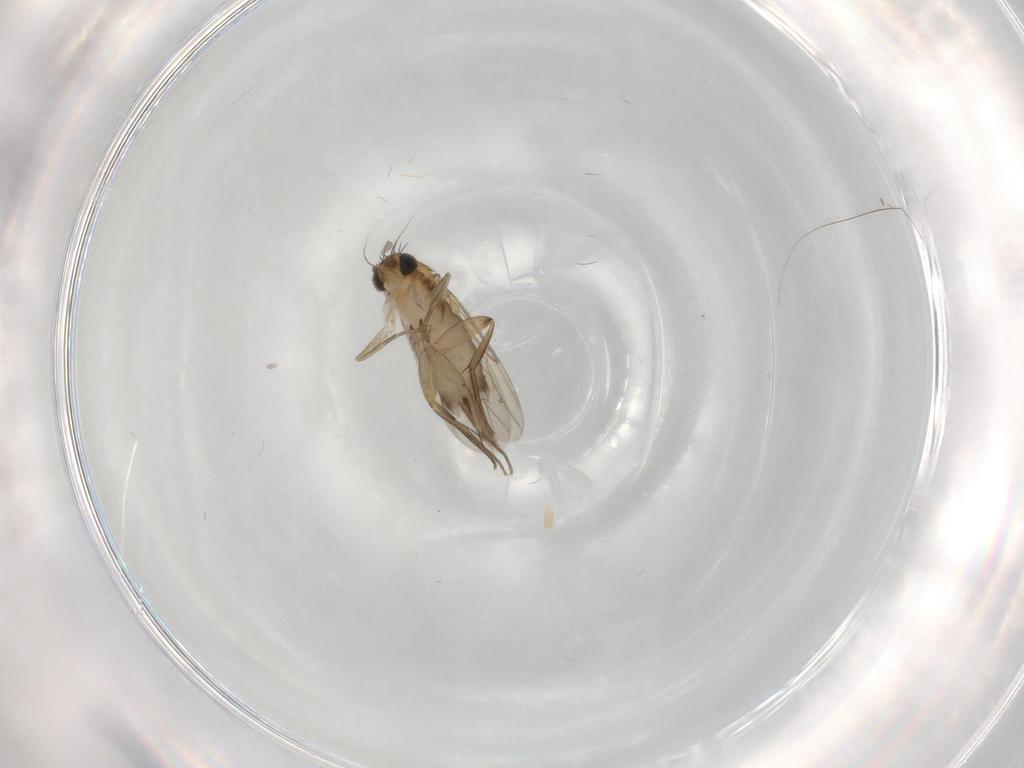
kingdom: Animalia
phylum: Arthropoda
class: Insecta
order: Diptera
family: Phoridae
